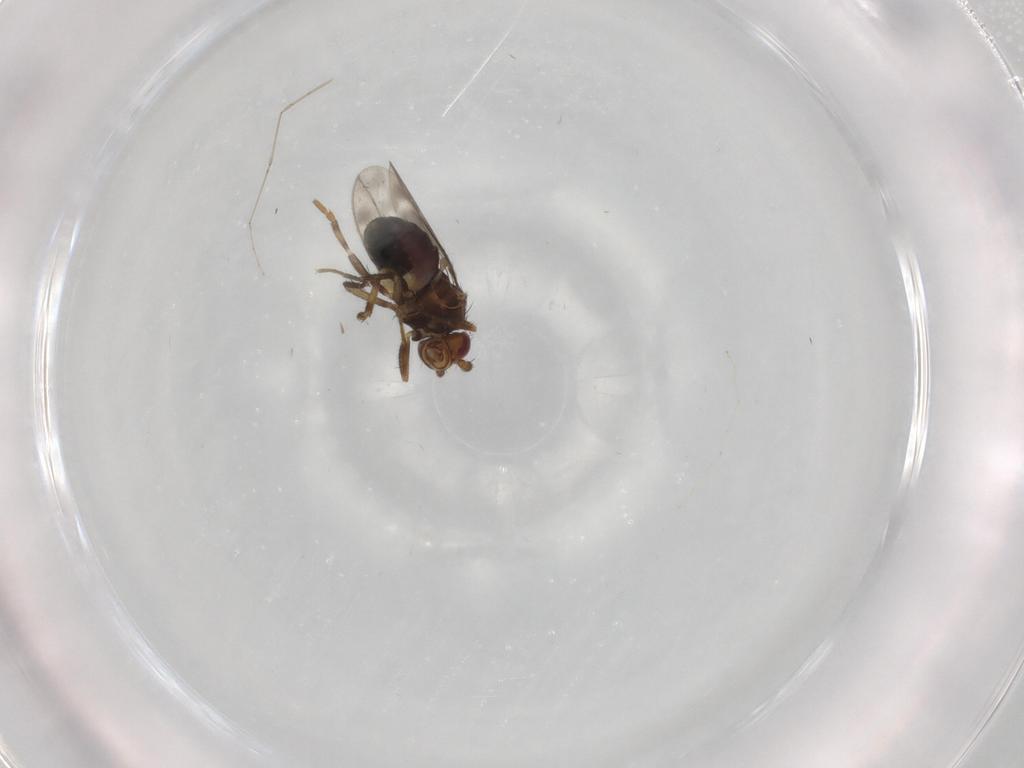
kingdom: Animalia
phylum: Arthropoda
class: Insecta
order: Diptera
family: Sphaeroceridae
